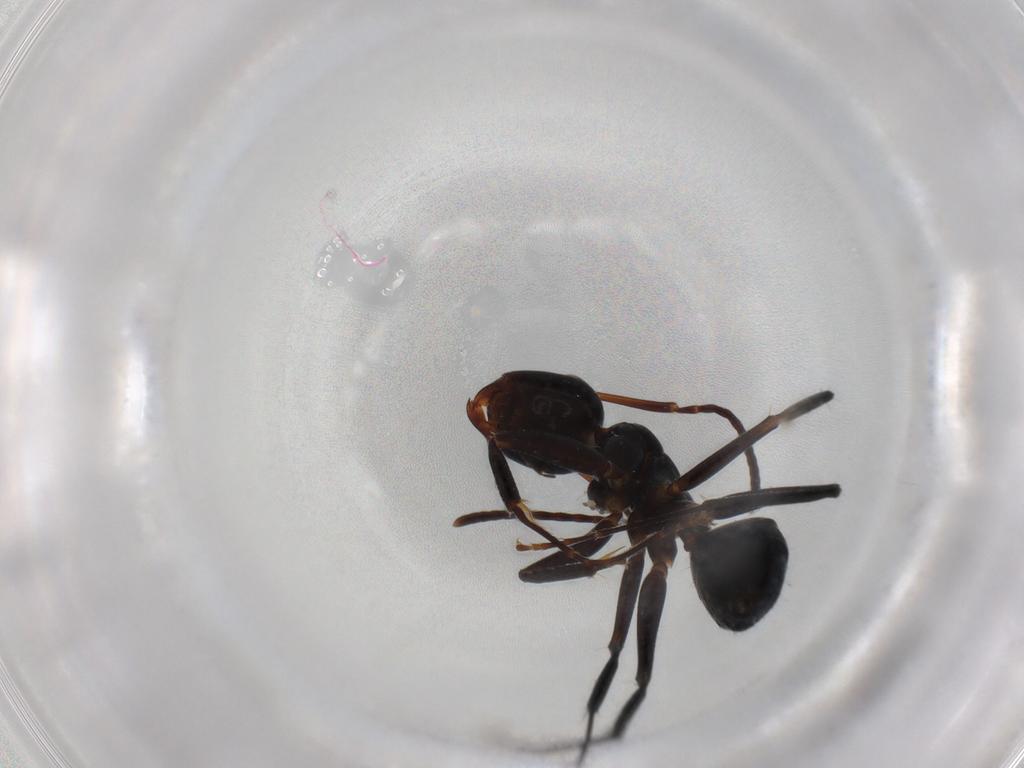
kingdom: Animalia
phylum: Arthropoda
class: Insecta
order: Hymenoptera
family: Formicidae
